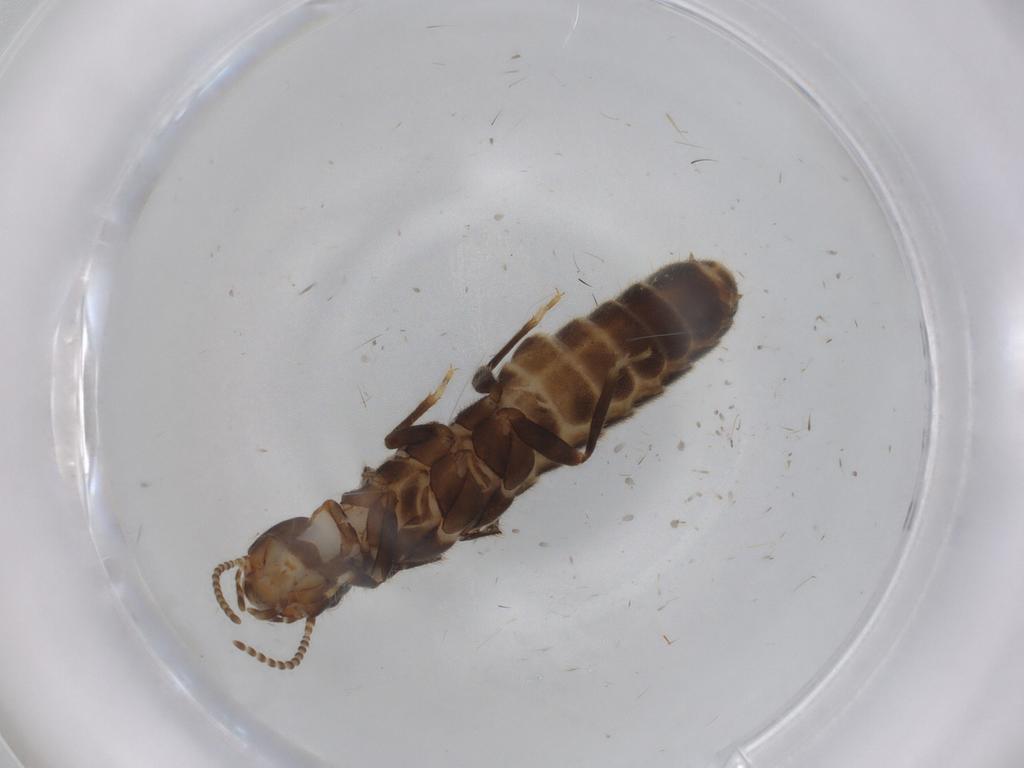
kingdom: Animalia
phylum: Arthropoda
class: Insecta
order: Blattodea
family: Termitidae
